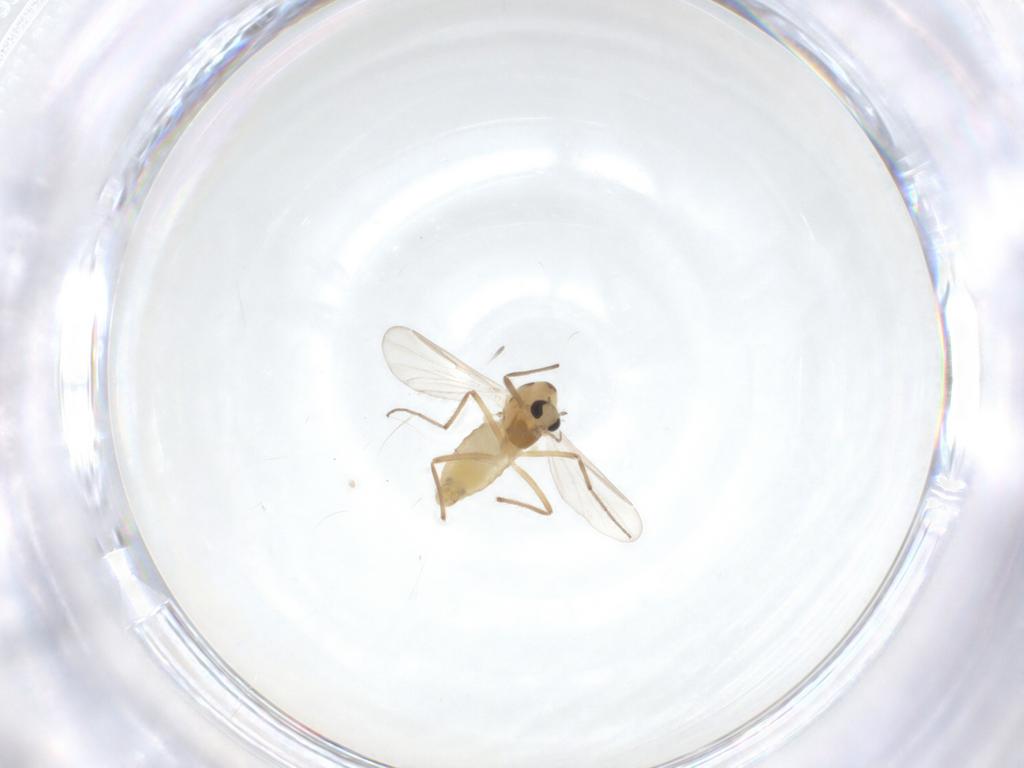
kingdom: Animalia
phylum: Arthropoda
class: Insecta
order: Diptera
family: Chironomidae
